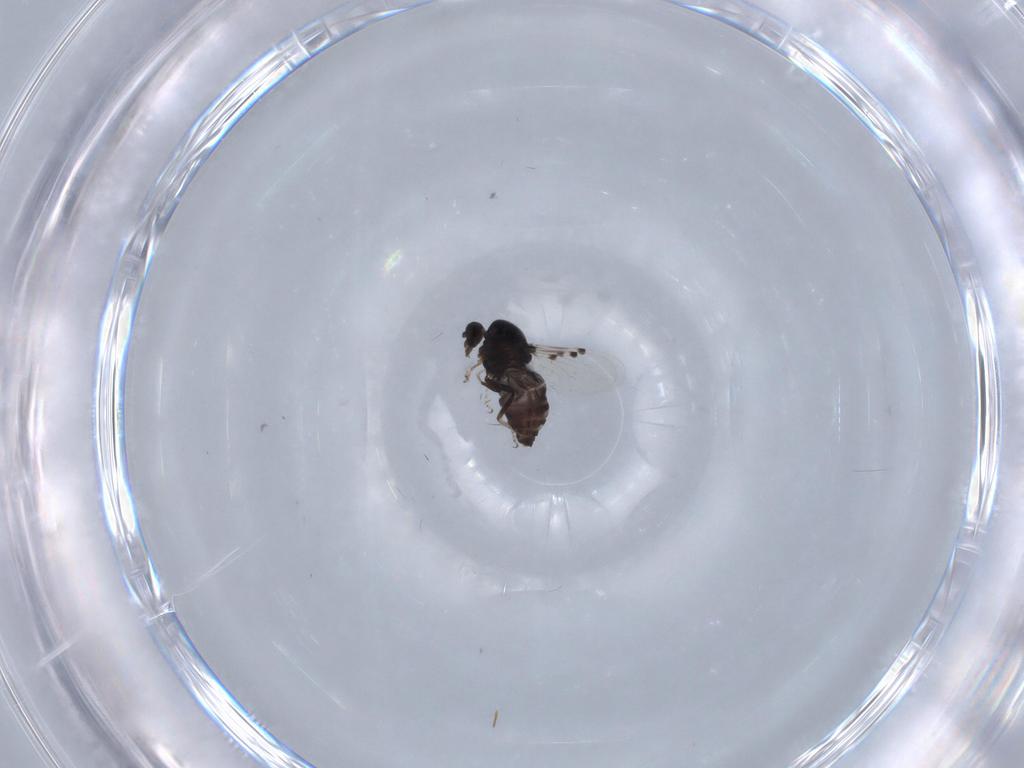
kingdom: Animalia
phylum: Arthropoda
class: Insecta
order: Diptera
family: Ceratopogonidae
